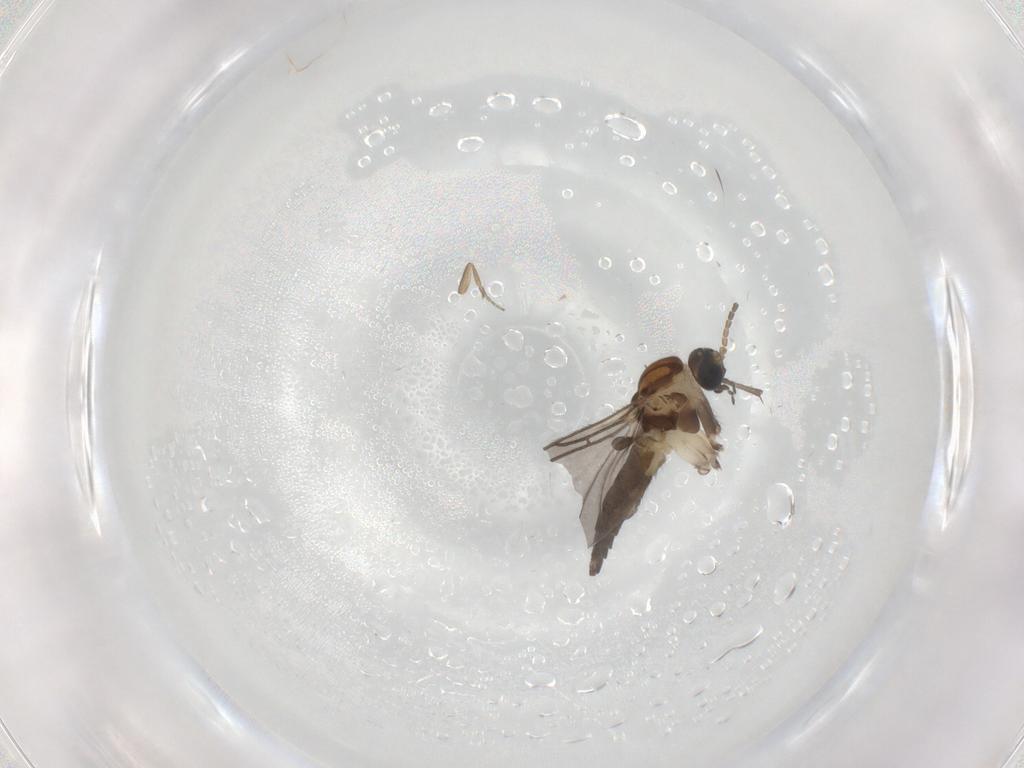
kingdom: Animalia
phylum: Arthropoda
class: Insecta
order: Diptera
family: Sciaridae
